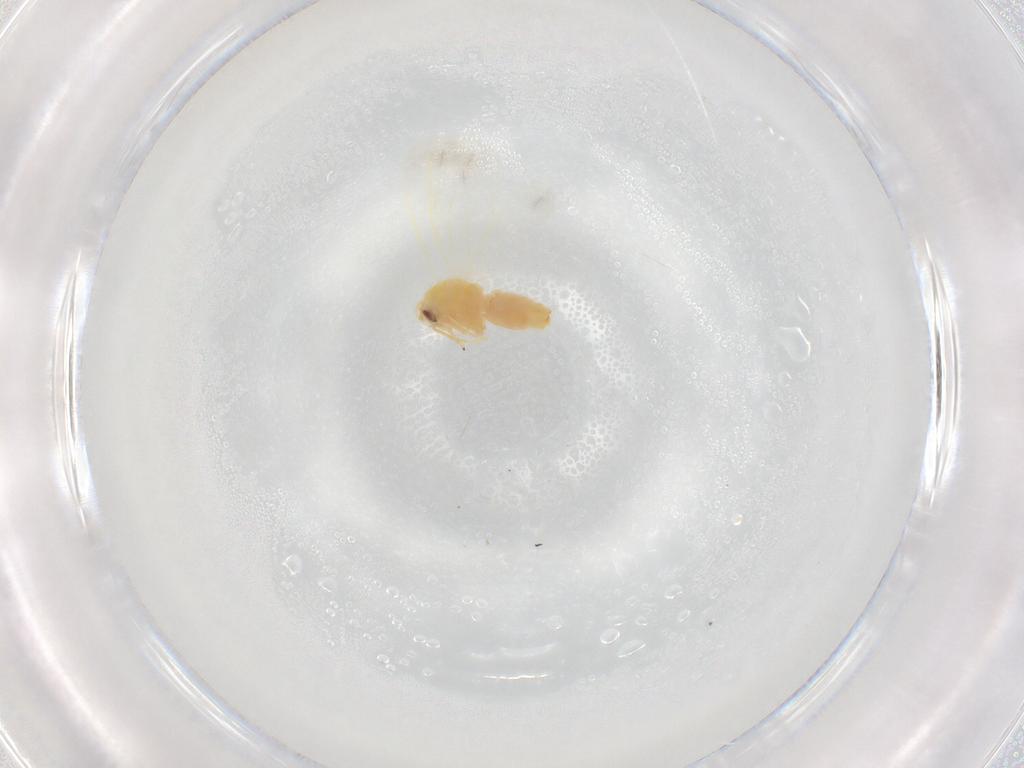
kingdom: Animalia
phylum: Arthropoda
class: Insecta
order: Hemiptera
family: Aleyrodidae
